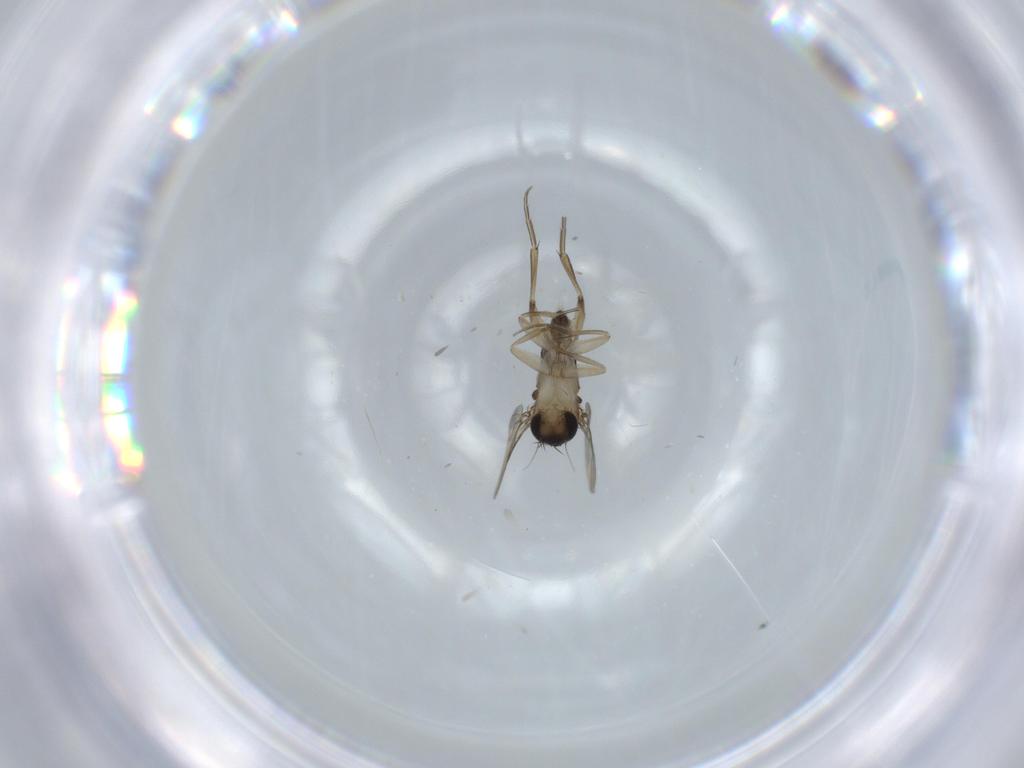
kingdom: Animalia
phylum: Arthropoda
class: Insecta
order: Diptera
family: Phoridae
